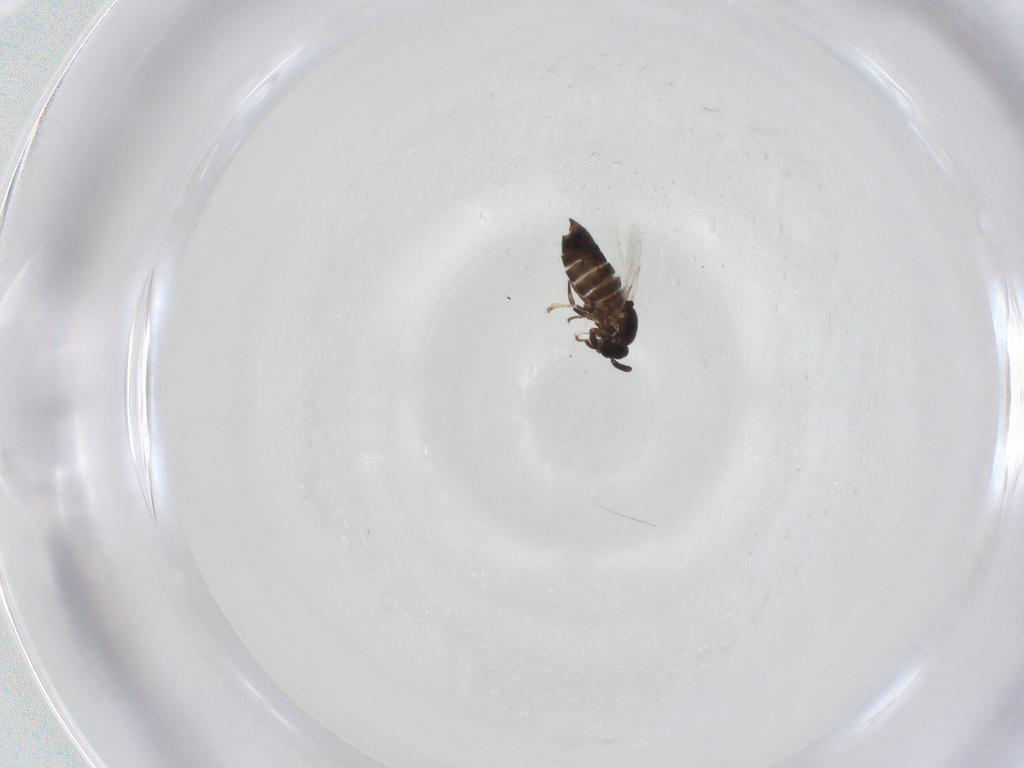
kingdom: Animalia
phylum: Arthropoda
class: Insecta
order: Diptera
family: Scatopsidae
